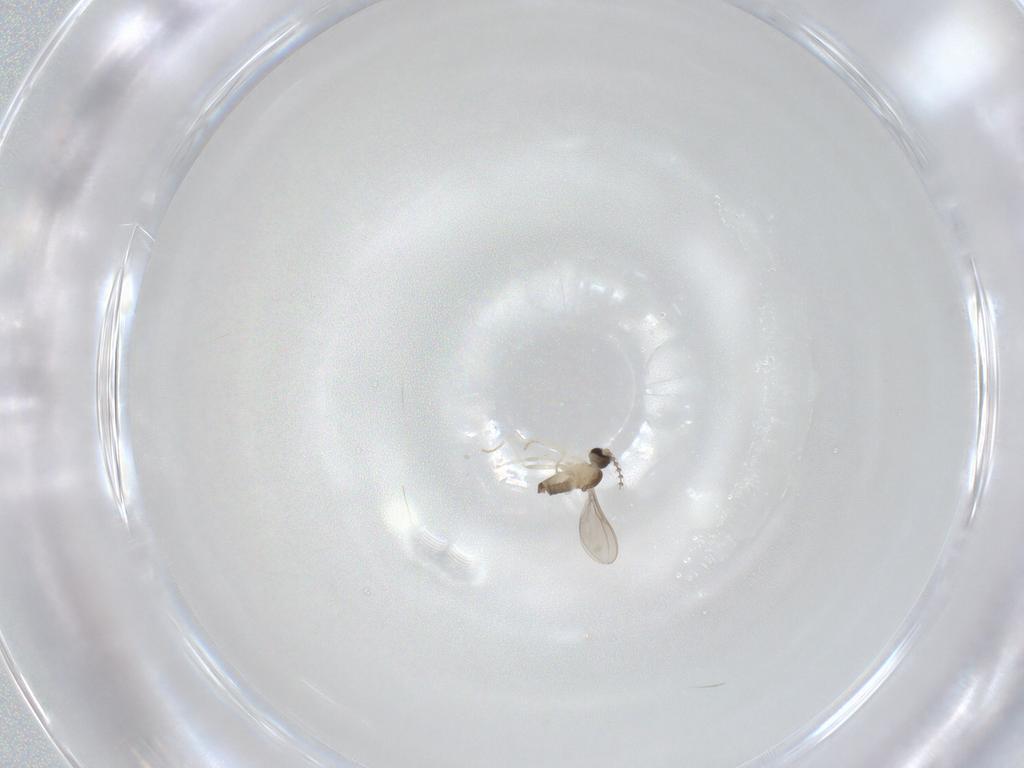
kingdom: Animalia
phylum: Arthropoda
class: Insecta
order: Diptera
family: Cecidomyiidae
